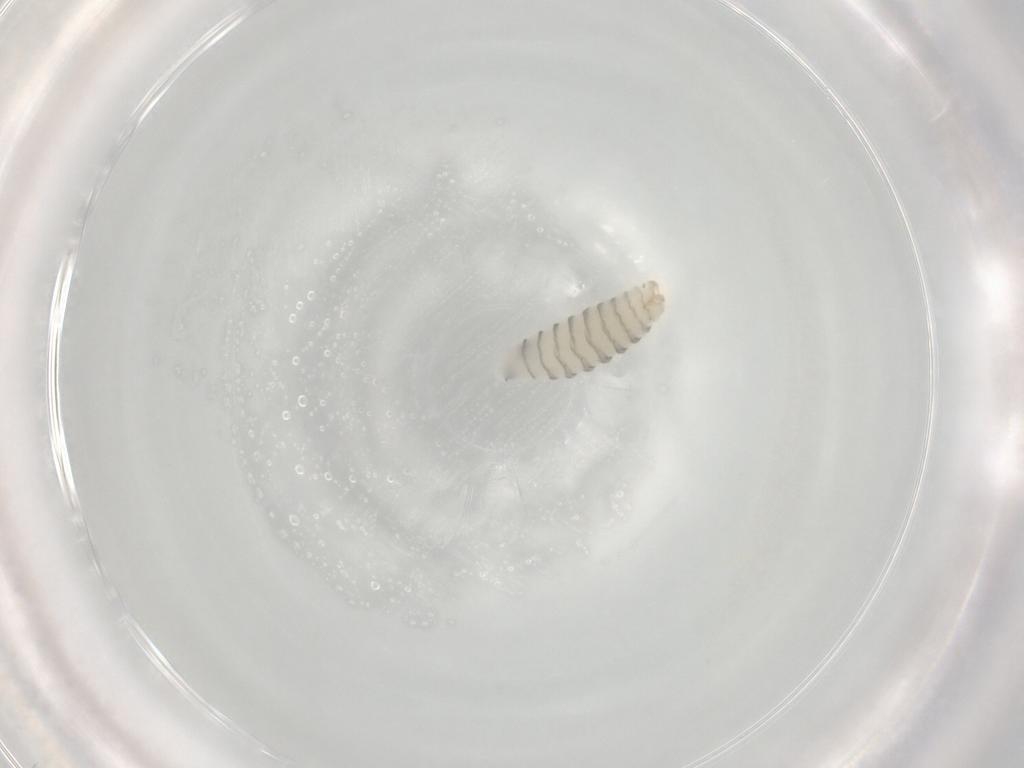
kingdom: Animalia
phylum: Arthropoda
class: Insecta
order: Diptera
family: Sarcophagidae
